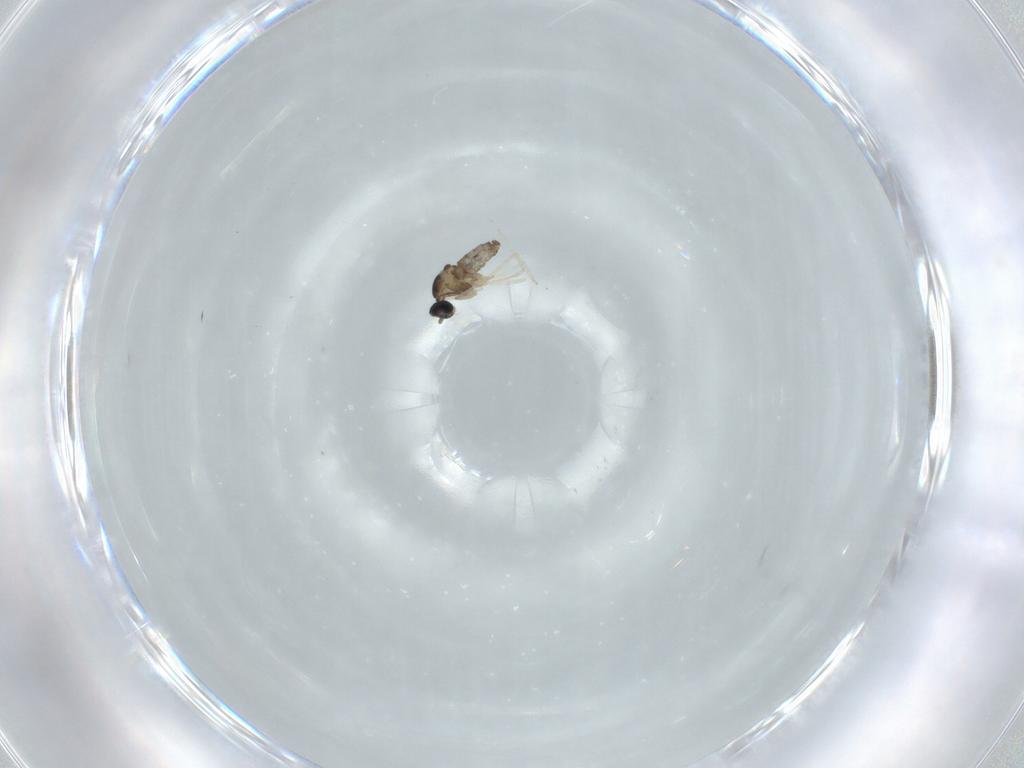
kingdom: Animalia
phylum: Arthropoda
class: Insecta
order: Diptera
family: Cecidomyiidae
